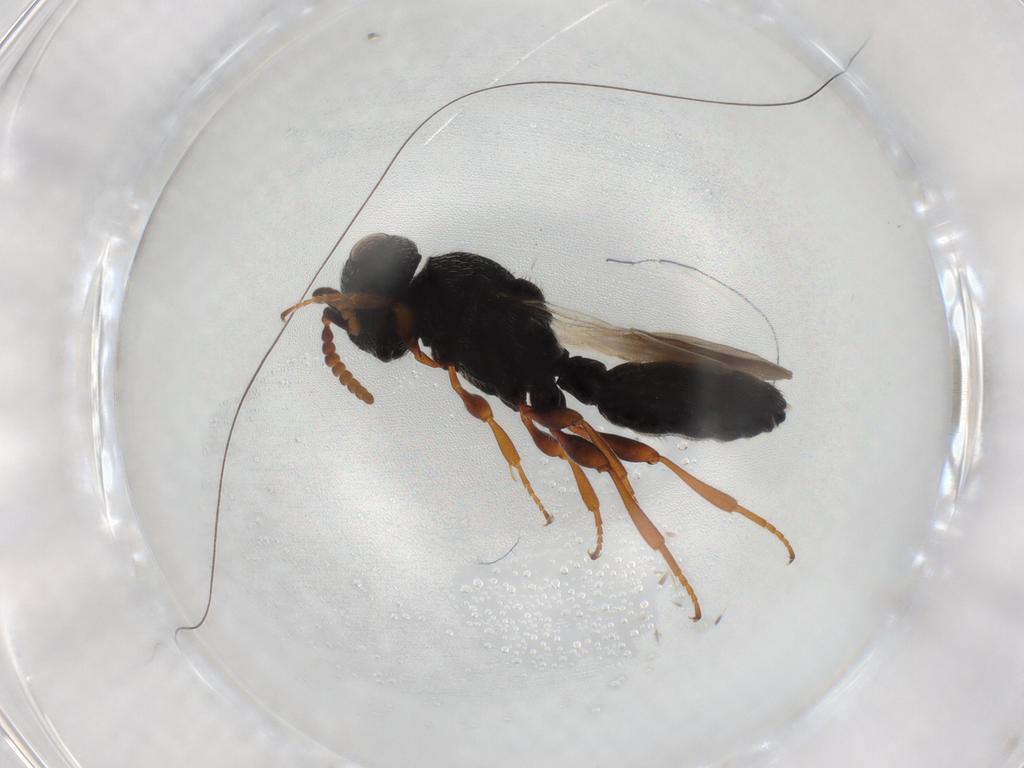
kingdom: Animalia
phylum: Arthropoda
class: Insecta
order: Hymenoptera
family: Scelionidae
